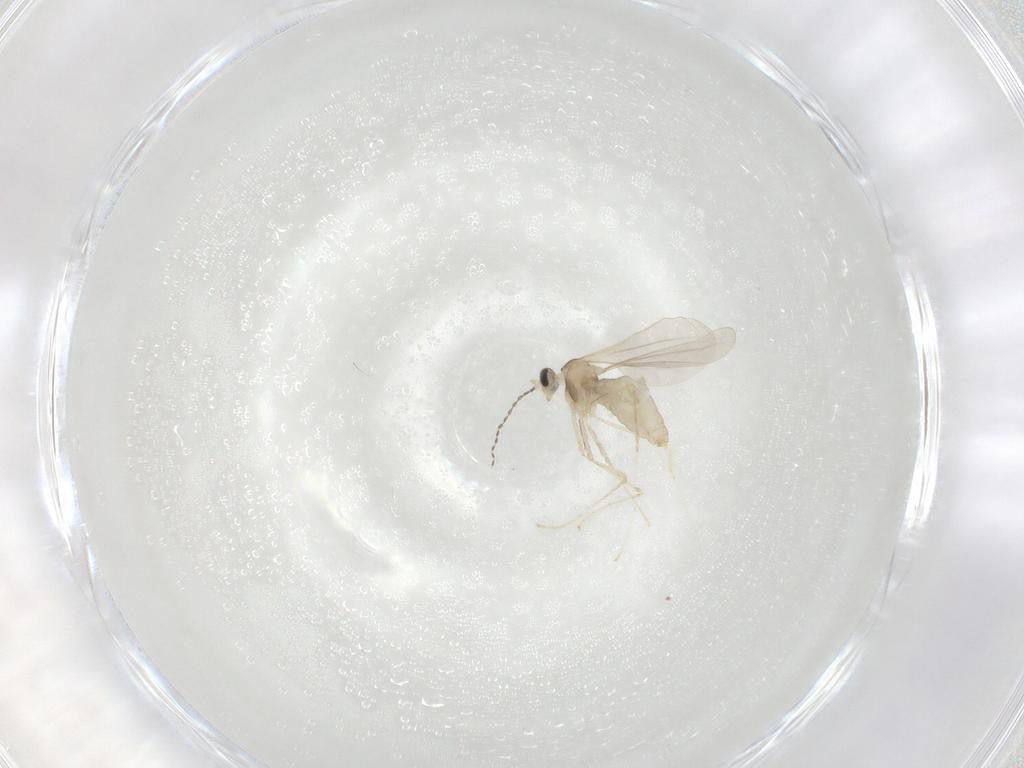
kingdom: Animalia
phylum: Arthropoda
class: Insecta
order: Diptera
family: Cecidomyiidae
